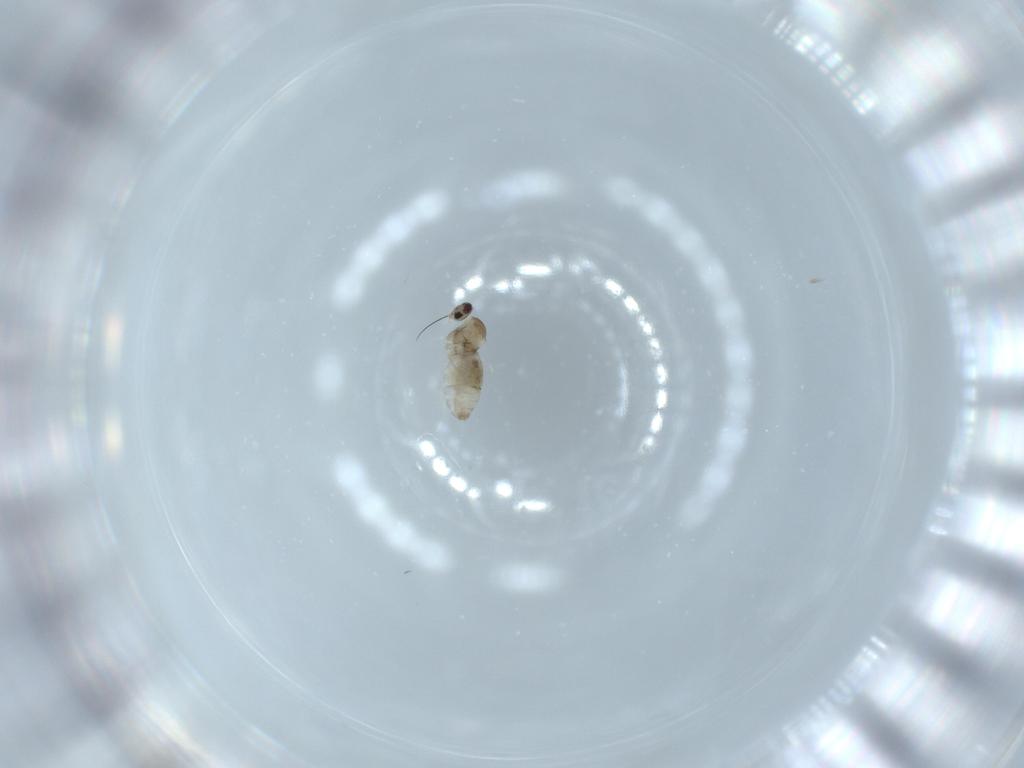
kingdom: Animalia
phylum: Arthropoda
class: Insecta
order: Diptera
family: Cecidomyiidae
